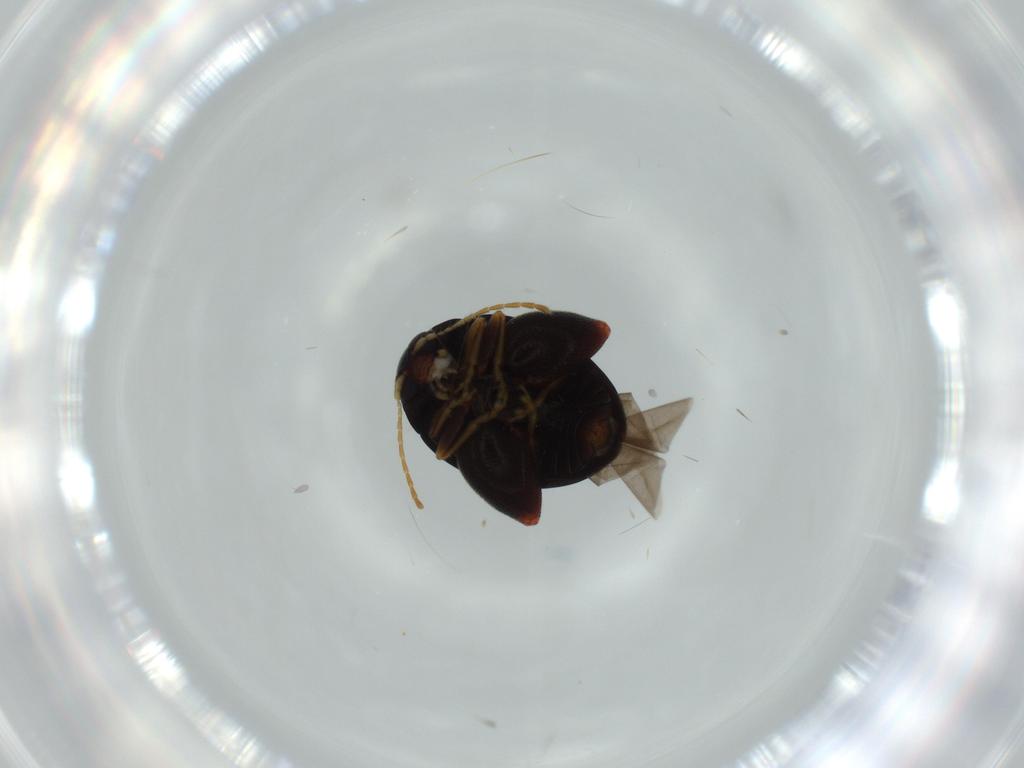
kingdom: Animalia
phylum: Arthropoda
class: Insecta
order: Coleoptera
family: Chrysomelidae
